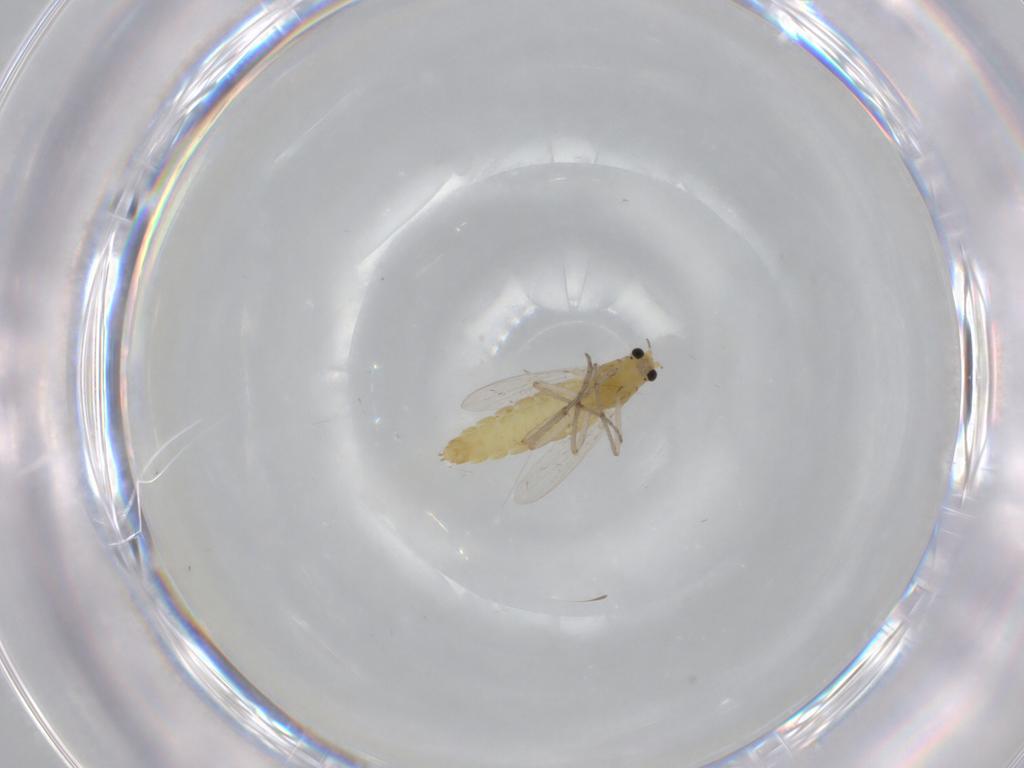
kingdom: Animalia
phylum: Arthropoda
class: Insecta
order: Diptera
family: Chironomidae
